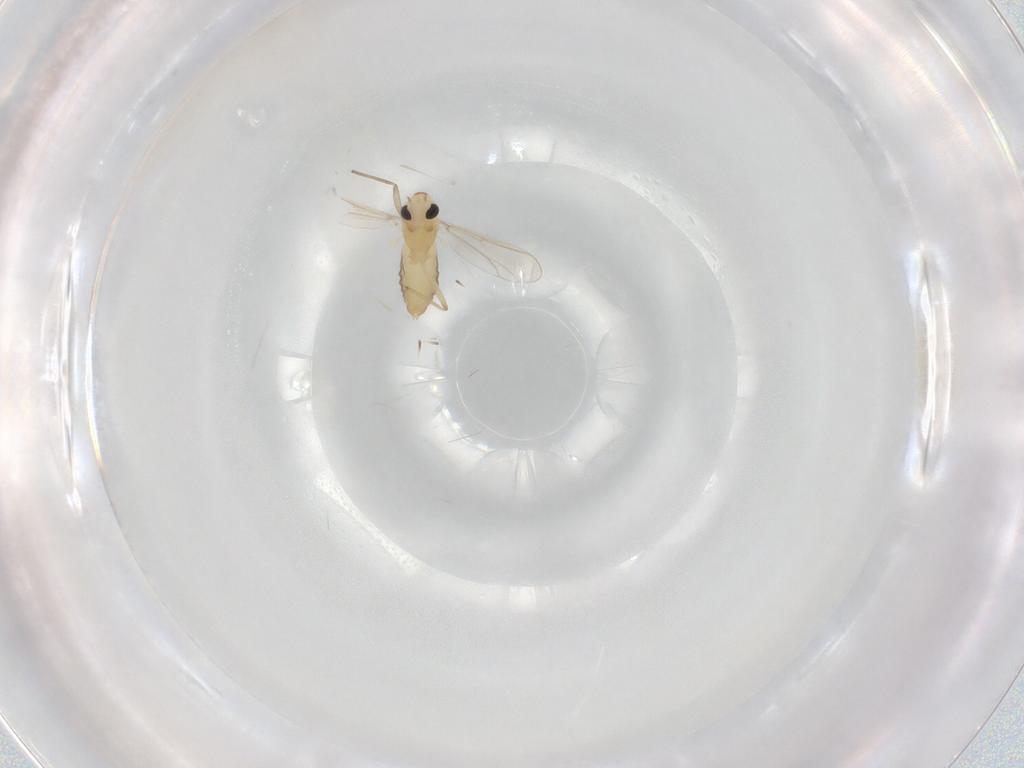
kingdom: Animalia
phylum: Arthropoda
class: Insecta
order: Diptera
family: Chironomidae
